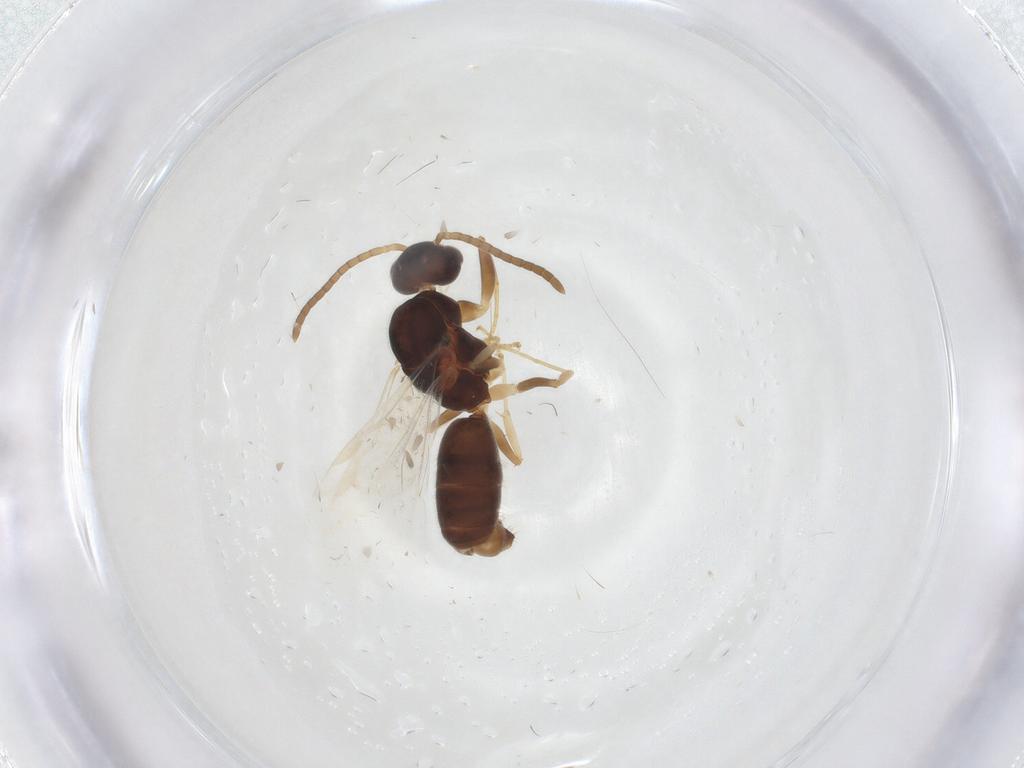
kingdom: Animalia
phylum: Arthropoda
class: Insecta
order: Hymenoptera
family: Formicidae
